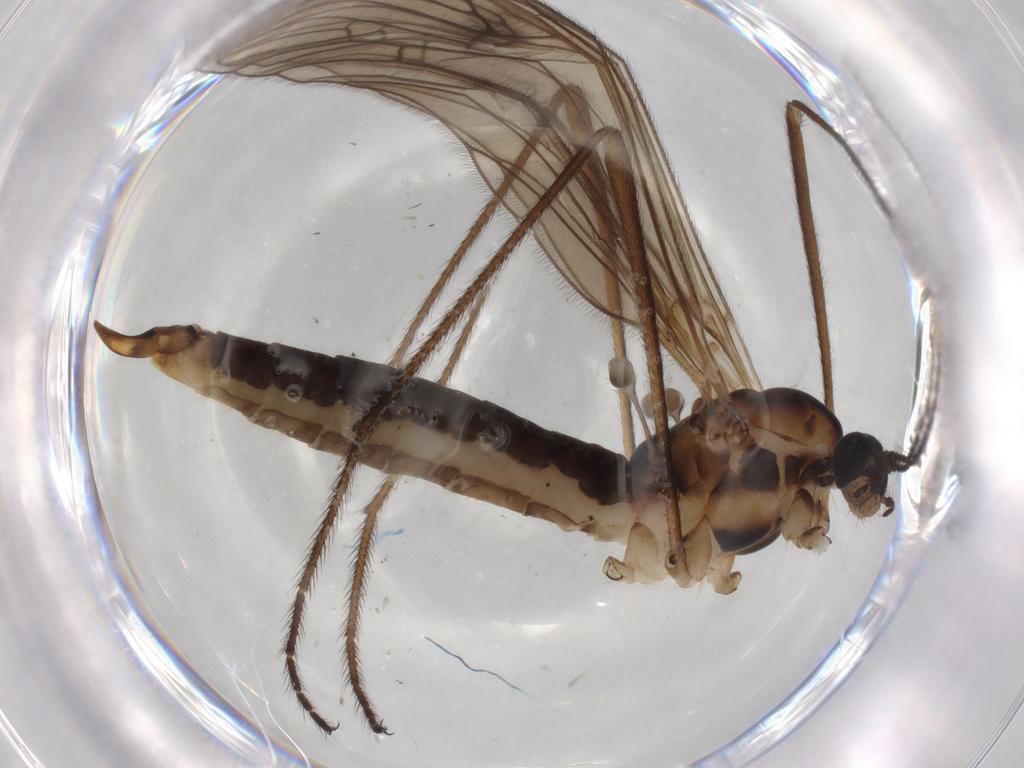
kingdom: Animalia
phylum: Arthropoda
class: Insecta
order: Diptera
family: Limoniidae
